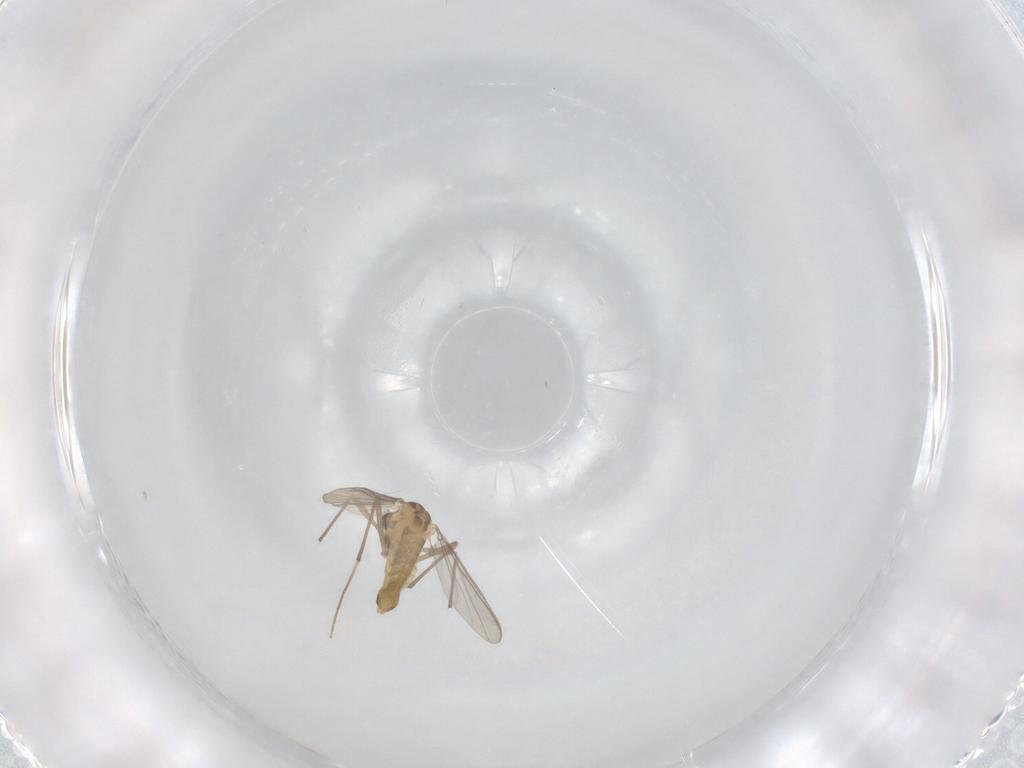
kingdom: Animalia
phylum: Arthropoda
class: Insecta
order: Diptera
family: Chironomidae
